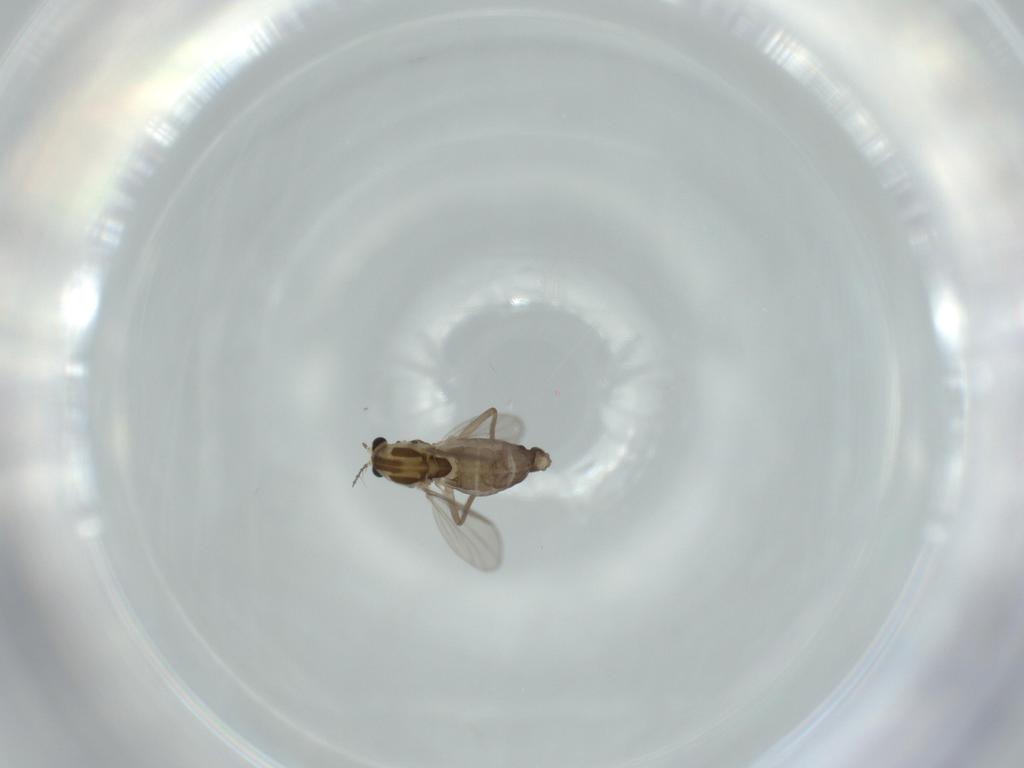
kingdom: Animalia
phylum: Arthropoda
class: Insecta
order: Diptera
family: Chironomidae
